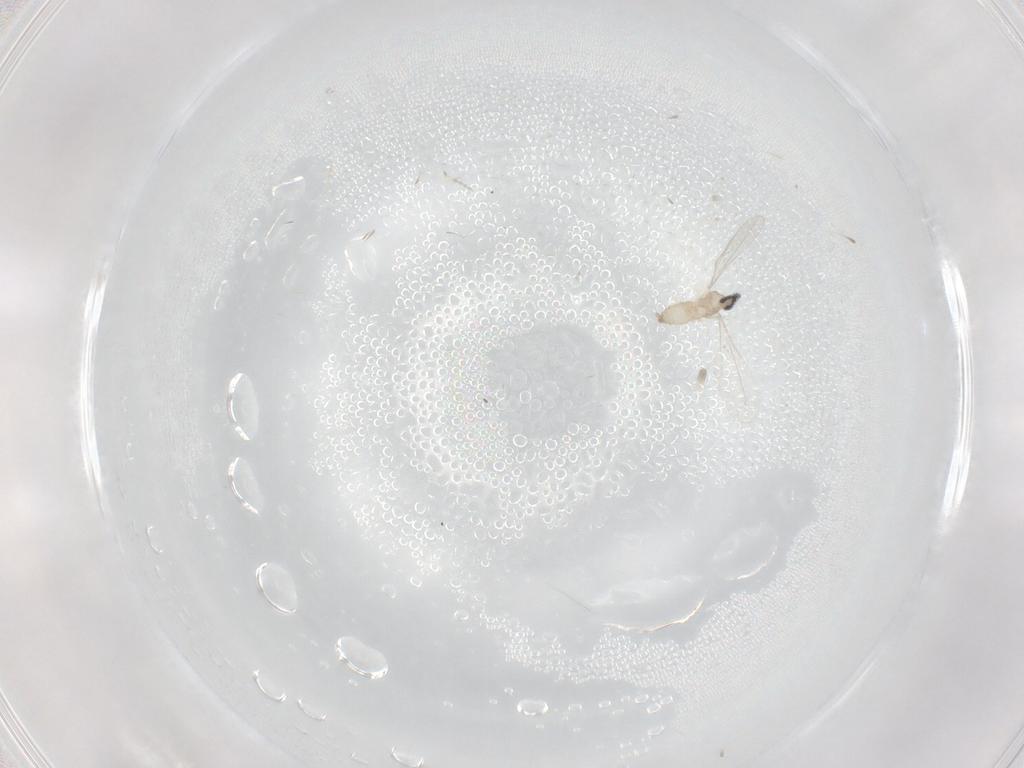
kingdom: Animalia
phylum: Arthropoda
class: Insecta
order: Diptera
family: Cecidomyiidae
